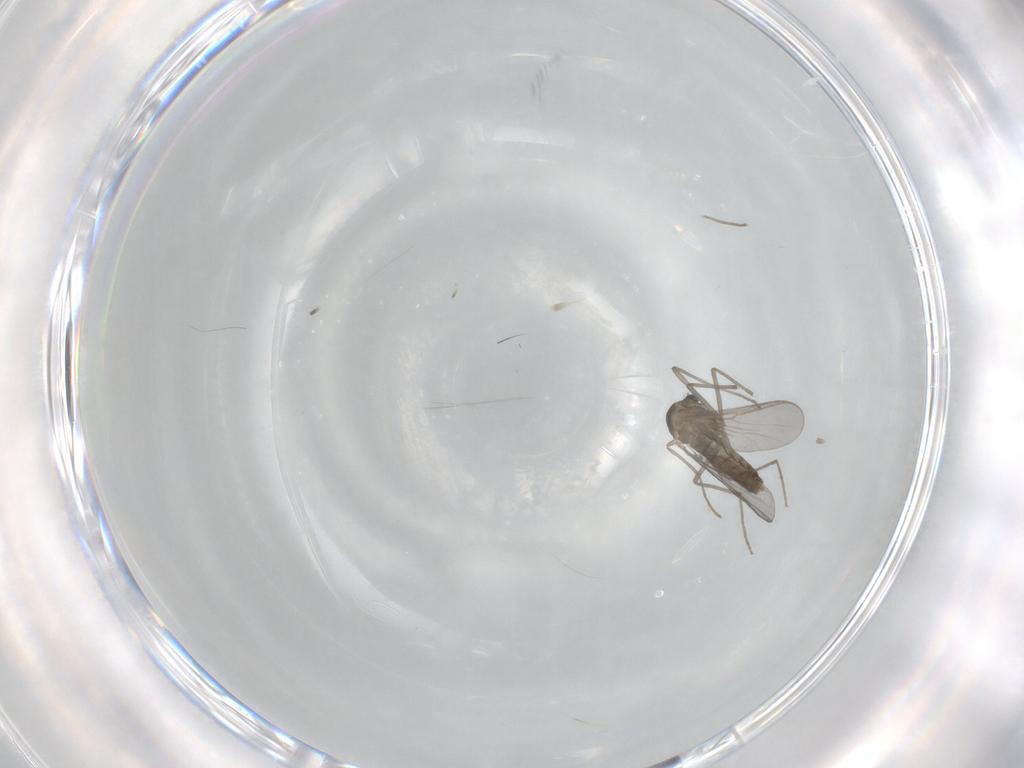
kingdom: Animalia
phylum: Arthropoda
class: Insecta
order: Diptera
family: Chironomidae
